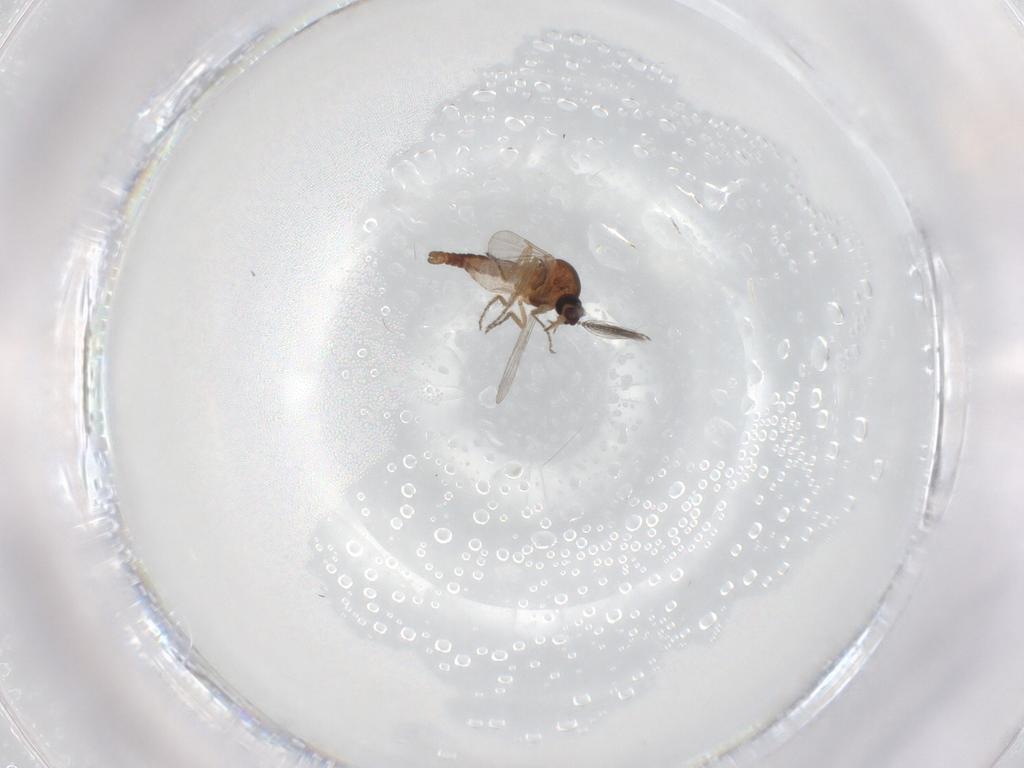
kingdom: Animalia
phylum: Arthropoda
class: Insecta
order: Diptera
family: Ceratopogonidae
